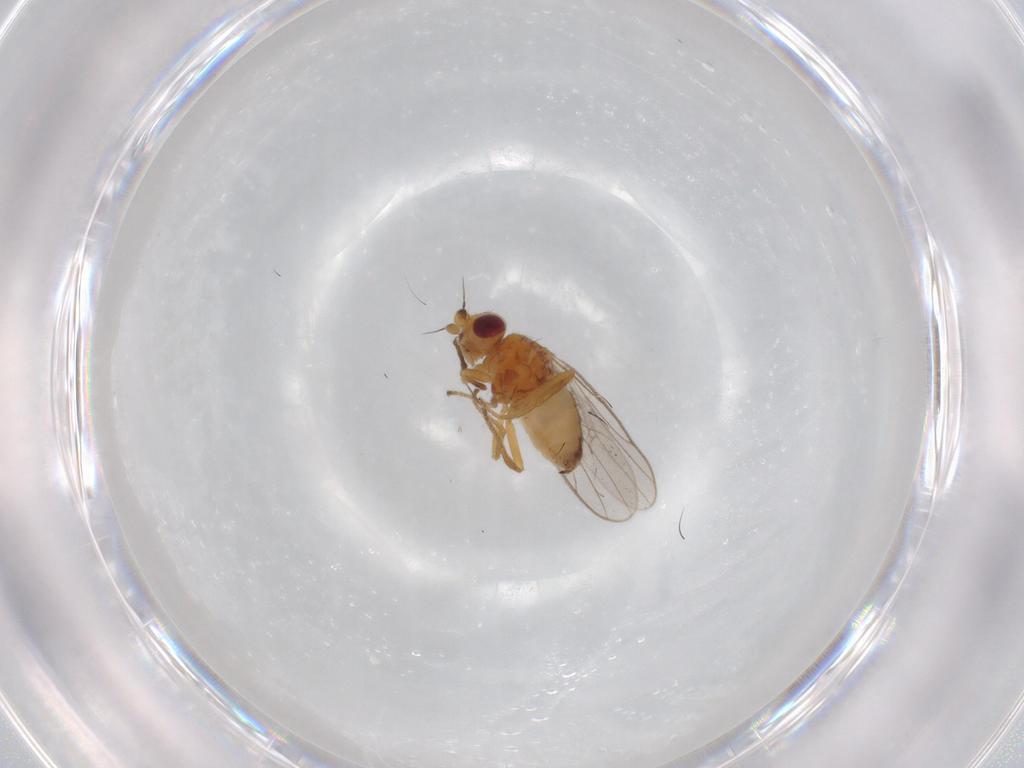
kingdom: Animalia
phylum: Arthropoda
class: Insecta
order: Diptera
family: Chloropidae
